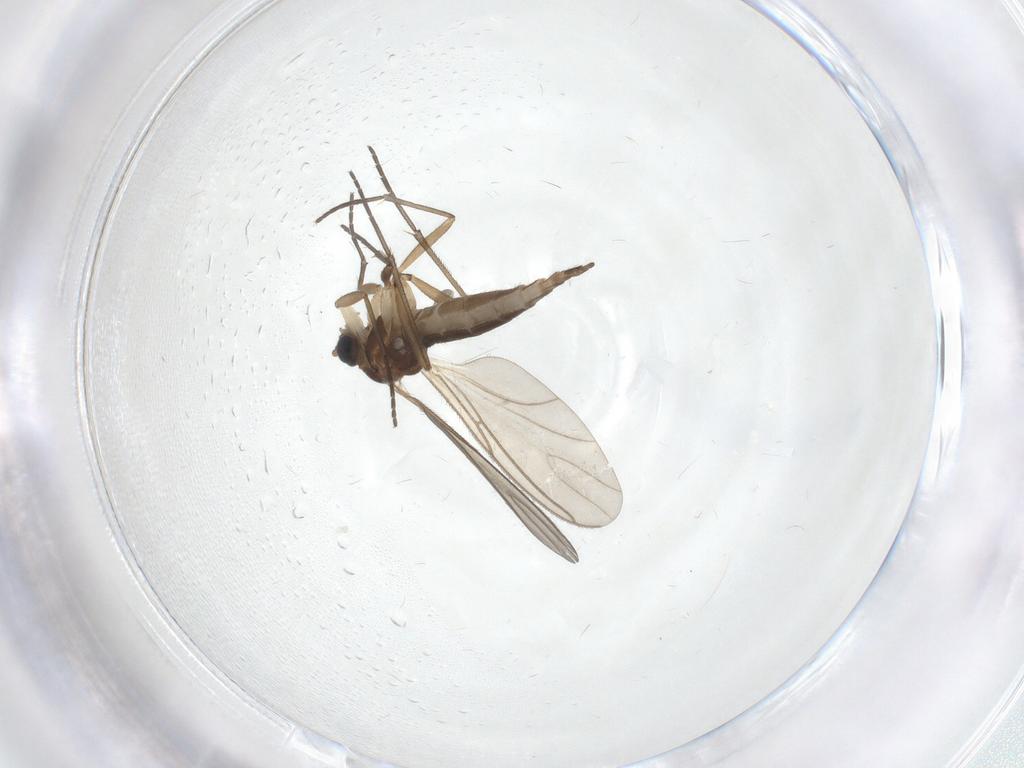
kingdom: Animalia
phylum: Arthropoda
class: Insecta
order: Diptera
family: Sciaridae
